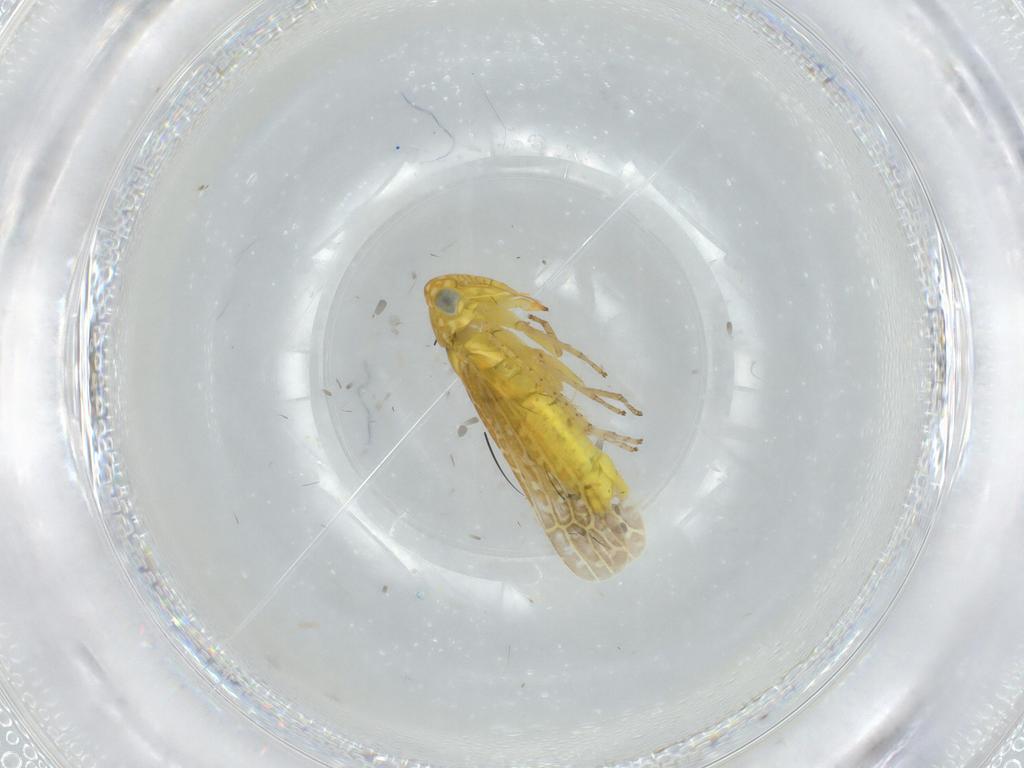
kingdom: Animalia
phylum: Arthropoda
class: Insecta
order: Hemiptera
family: Cicadellidae
